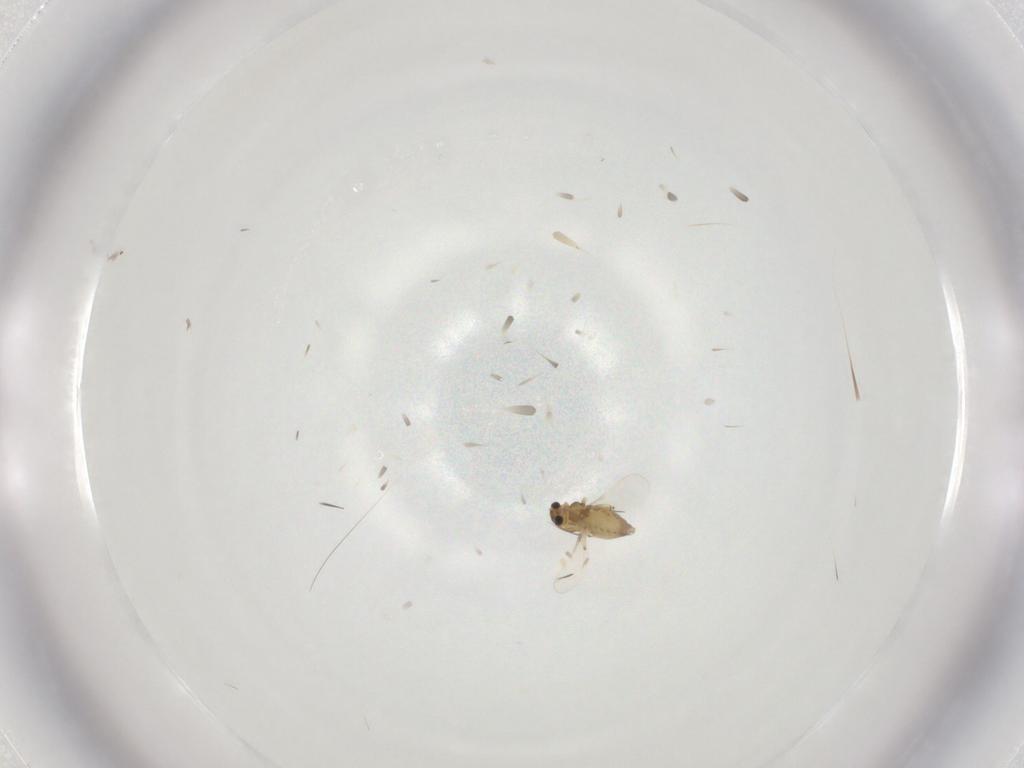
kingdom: Animalia
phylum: Arthropoda
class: Insecta
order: Diptera
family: Chironomidae
